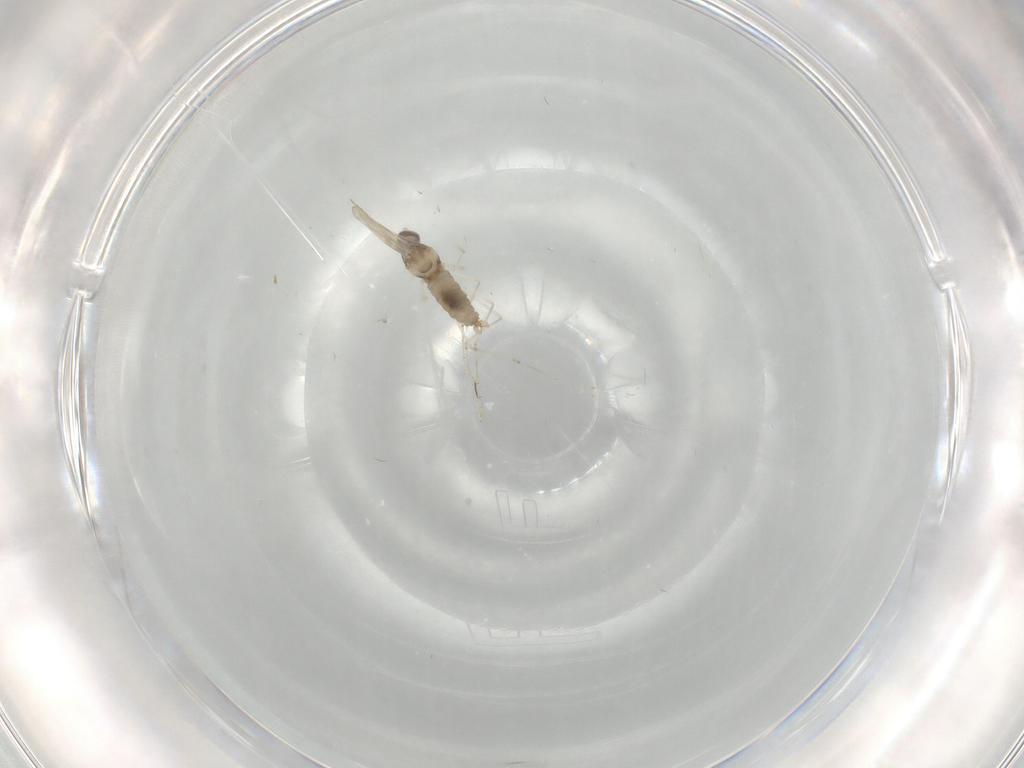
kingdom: Animalia
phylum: Arthropoda
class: Insecta
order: Diptera
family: Cecidomyiidae
